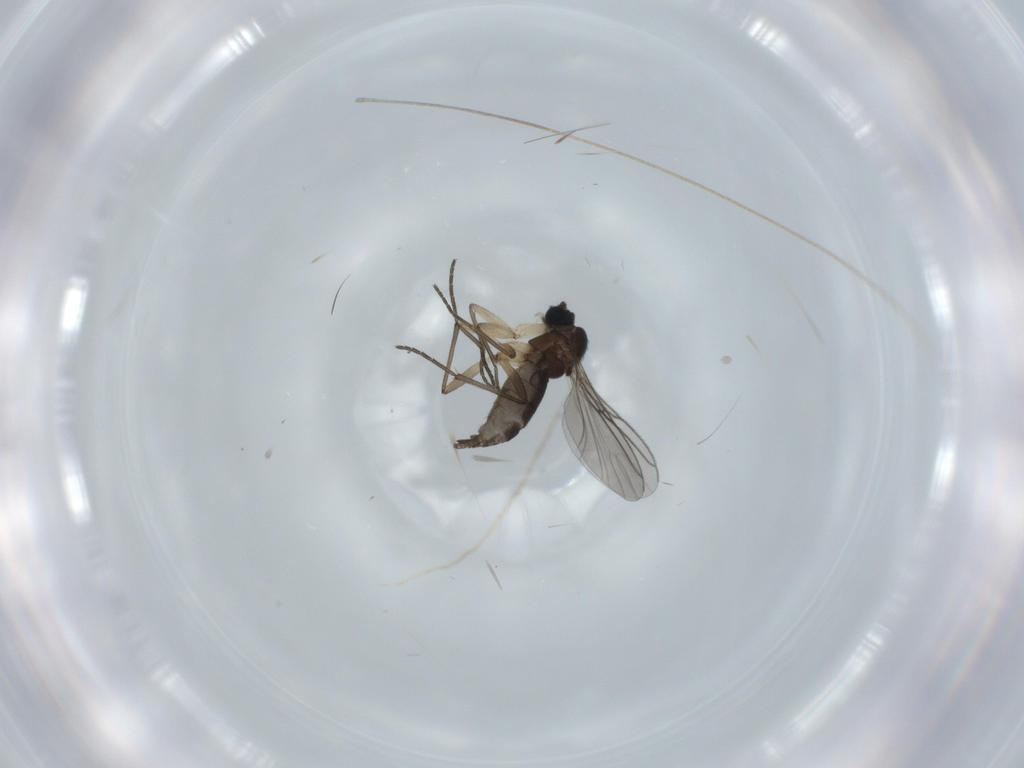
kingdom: Animalia
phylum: Arthropoda
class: Insecta
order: Diptera
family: Sciaridae
